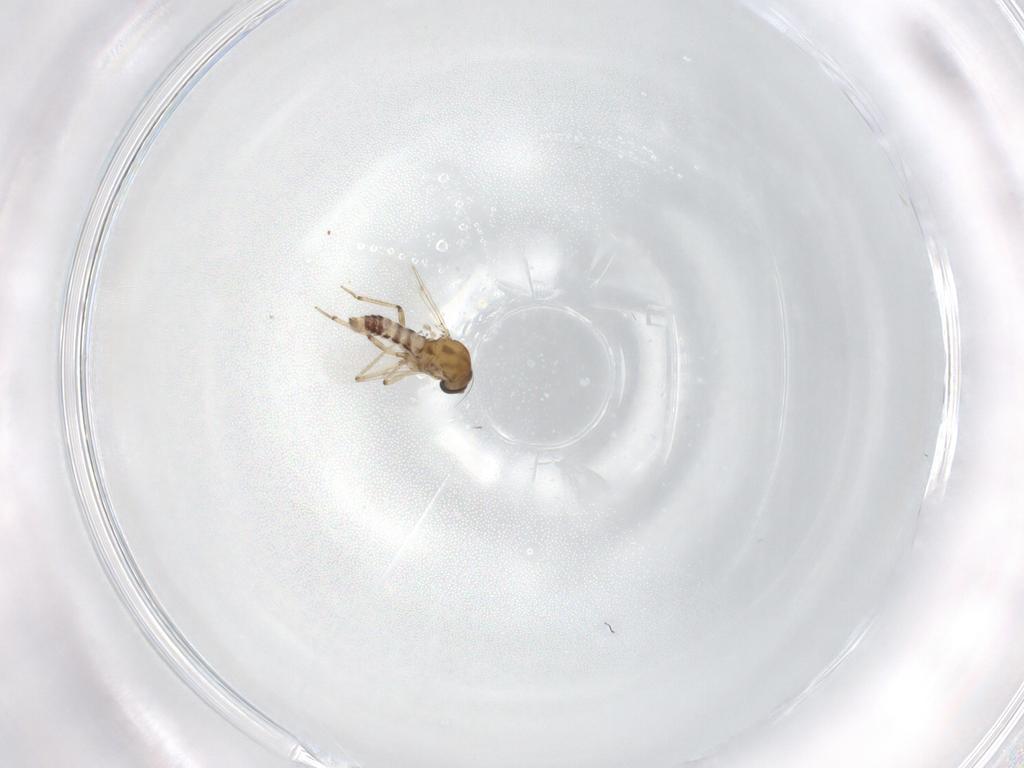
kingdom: Animalia
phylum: Arthropoda
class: Insecta
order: Diptera
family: Ceratopogonidae
